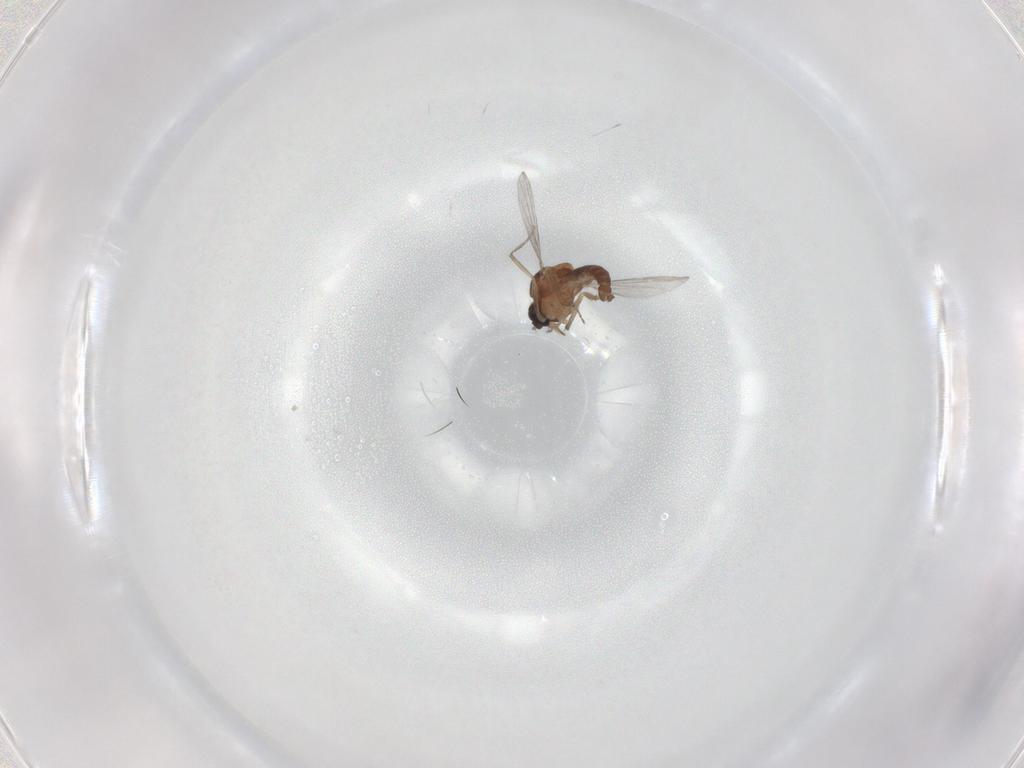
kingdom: Animalia
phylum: Arthropoda
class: Insecta
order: Diptera
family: Ceratopogonidae
